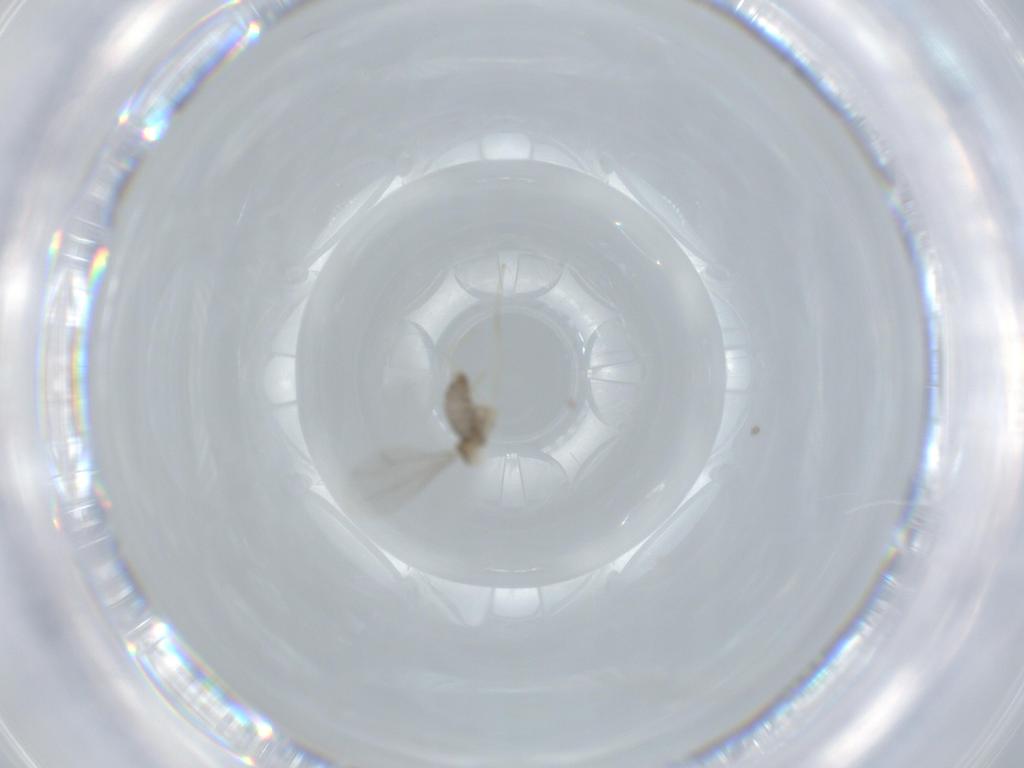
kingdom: Animalia
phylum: Arthropoda
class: Insecta
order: Diptera
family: Cecidomyiidae
